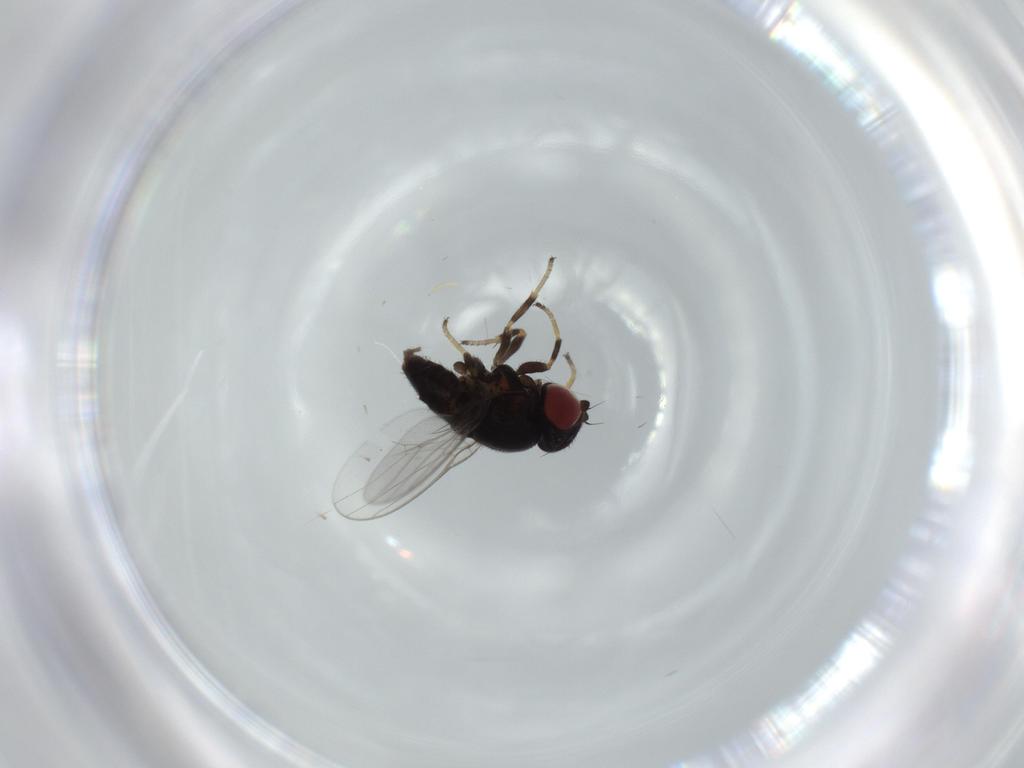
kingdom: Animalia
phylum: Arthropoda
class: Insecta
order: Diptera
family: Chloropidae
